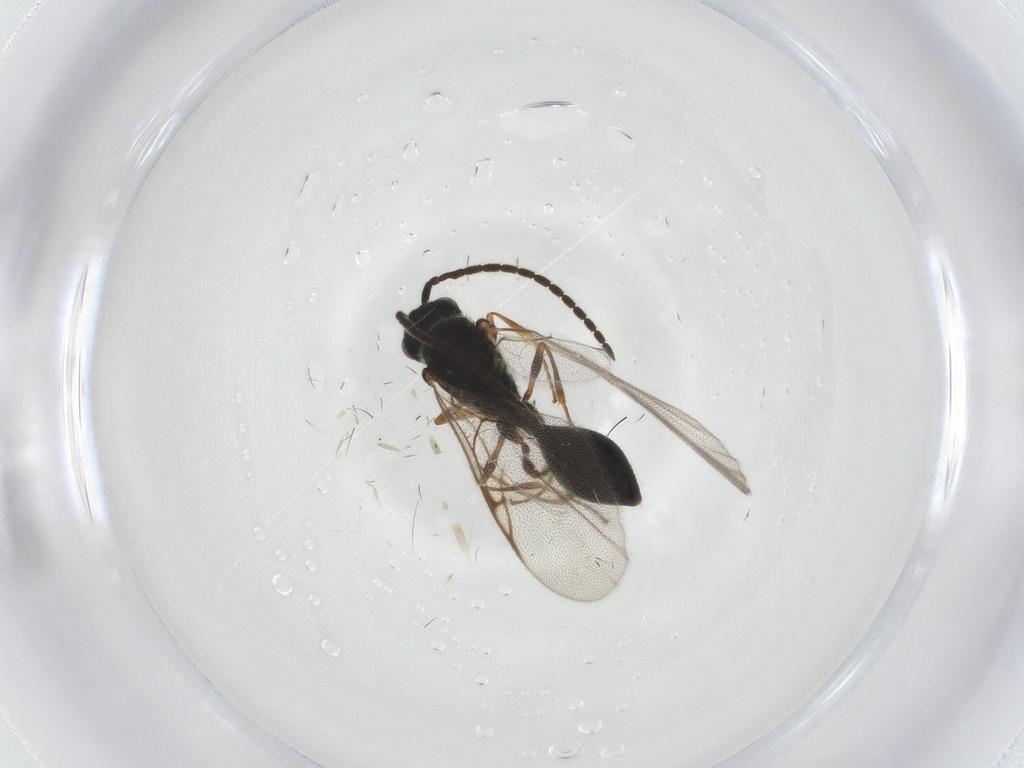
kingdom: Animalia
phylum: Arthropoda
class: Insecta
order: Hymenoptera
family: Diapriidae
